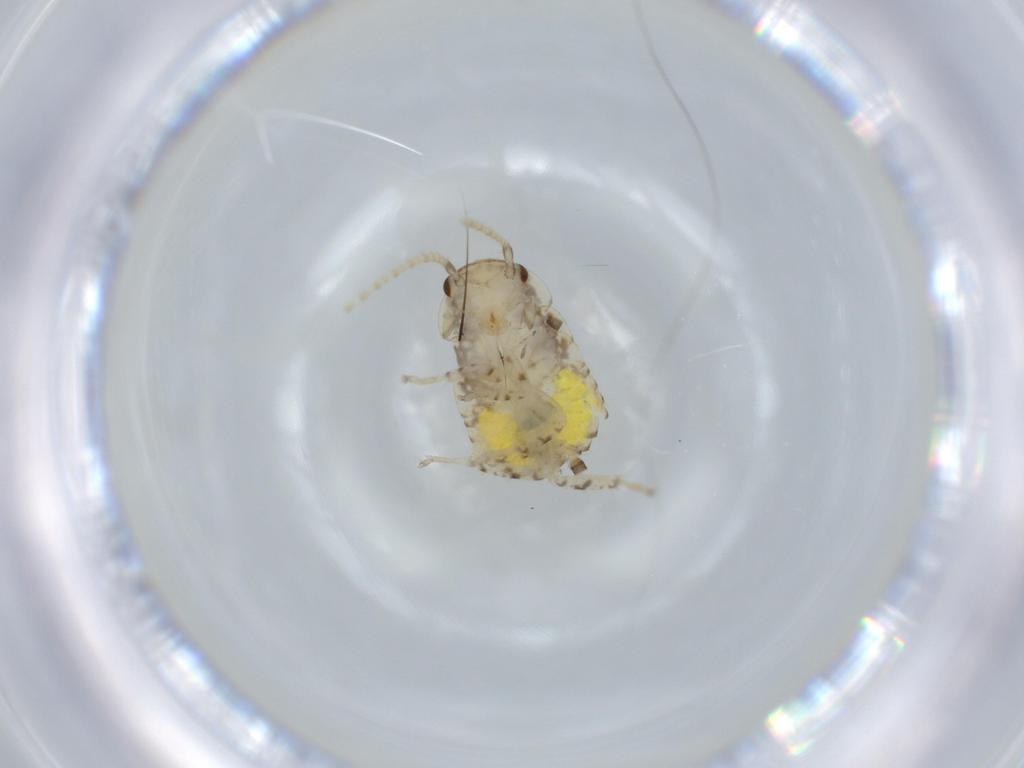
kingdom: Animalia
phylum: Arthropoda
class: Insecta
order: Blattodea
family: Ectobiidae
